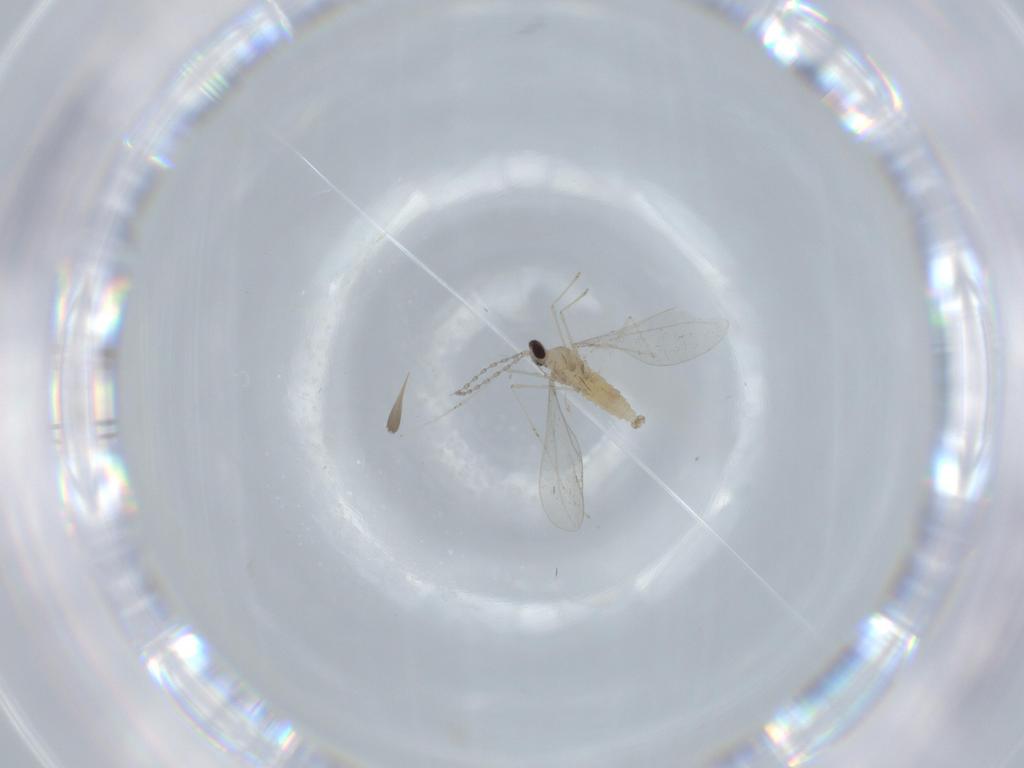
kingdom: Animalia
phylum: Arthropoda
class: Insecta
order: Diptera
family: Cecidomyiidae
